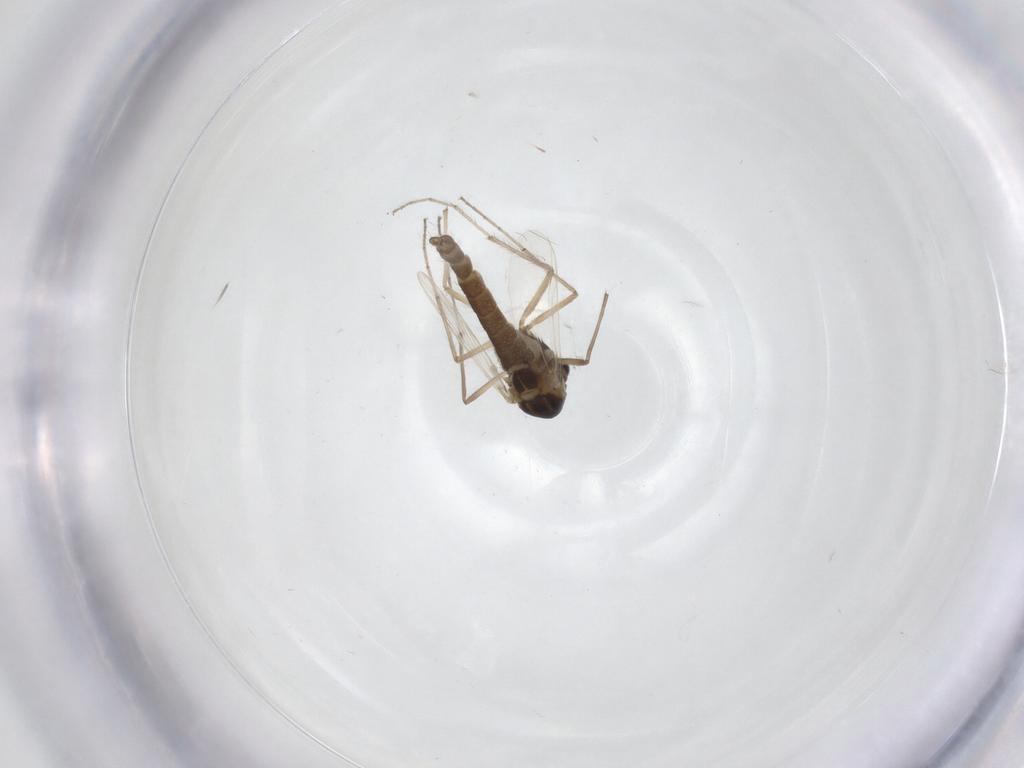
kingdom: Animalia
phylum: Arthropoda
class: Insecta
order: Diptera
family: Chironomidae
